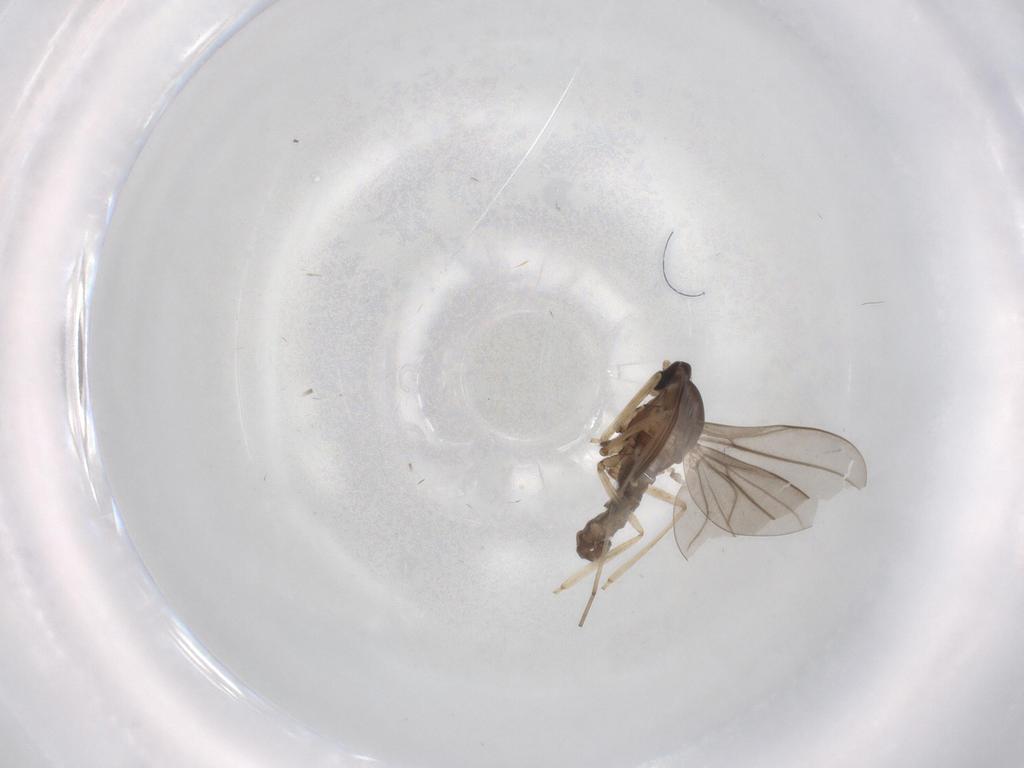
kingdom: Animalia
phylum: Arthropoda
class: Insecta
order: Diptera
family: Cecidomyiidae
